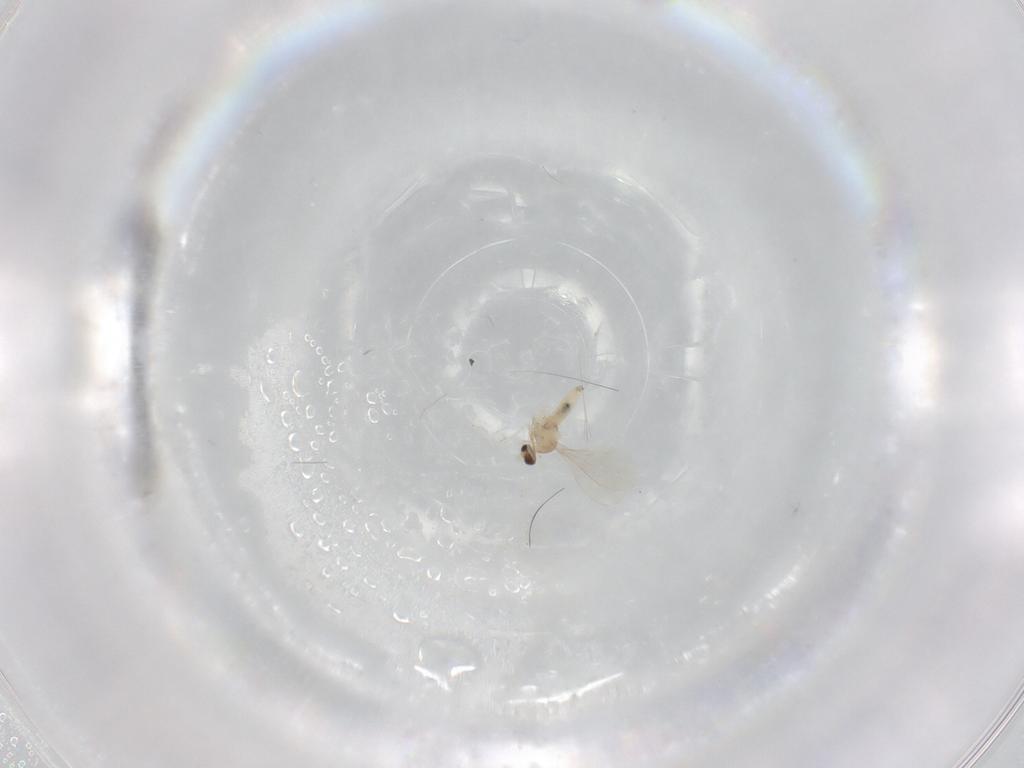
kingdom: Animalia
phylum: Arthropoda
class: Insecta
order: Diptera
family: Cecidomyiidae
